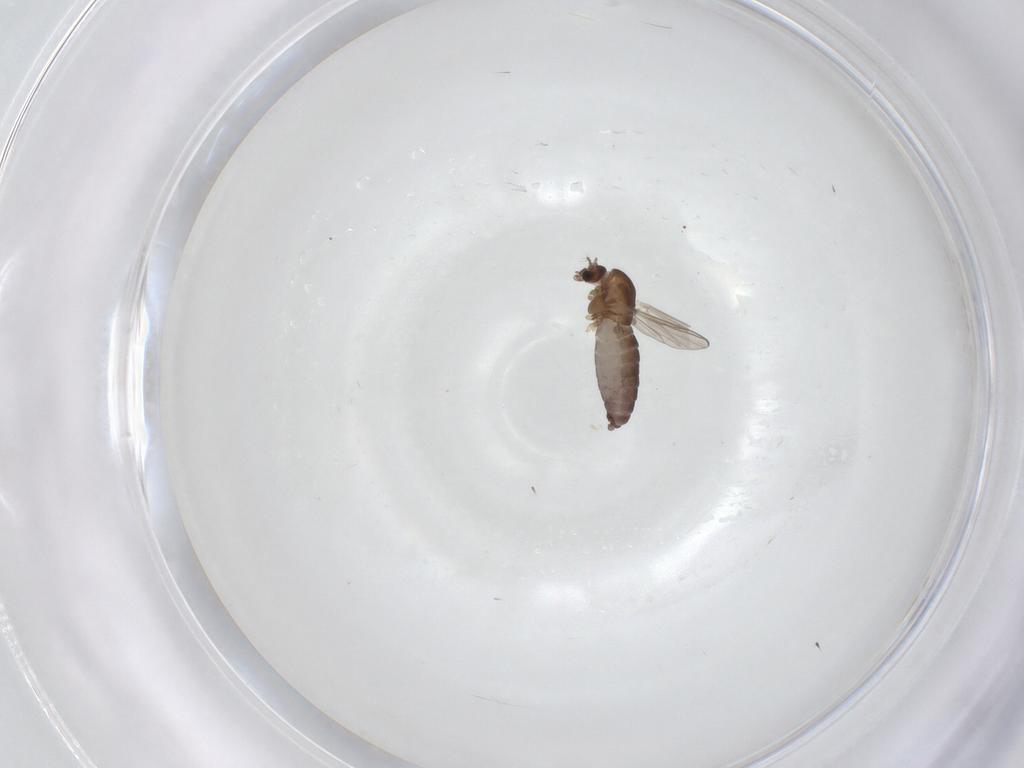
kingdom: Animalia
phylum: Arthropoda
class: Insecta
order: Diptera
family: Chironomidae
